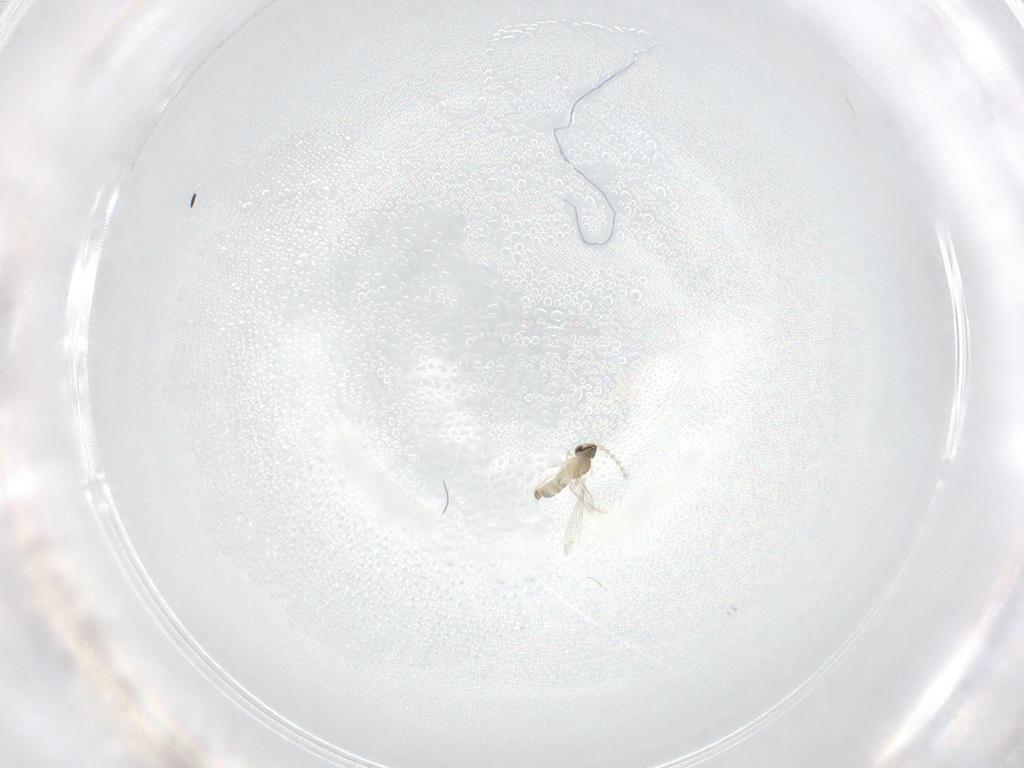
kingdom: Animalia
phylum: Arthropoda
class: Insecta
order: Diptera
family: Cecidomyiidae
